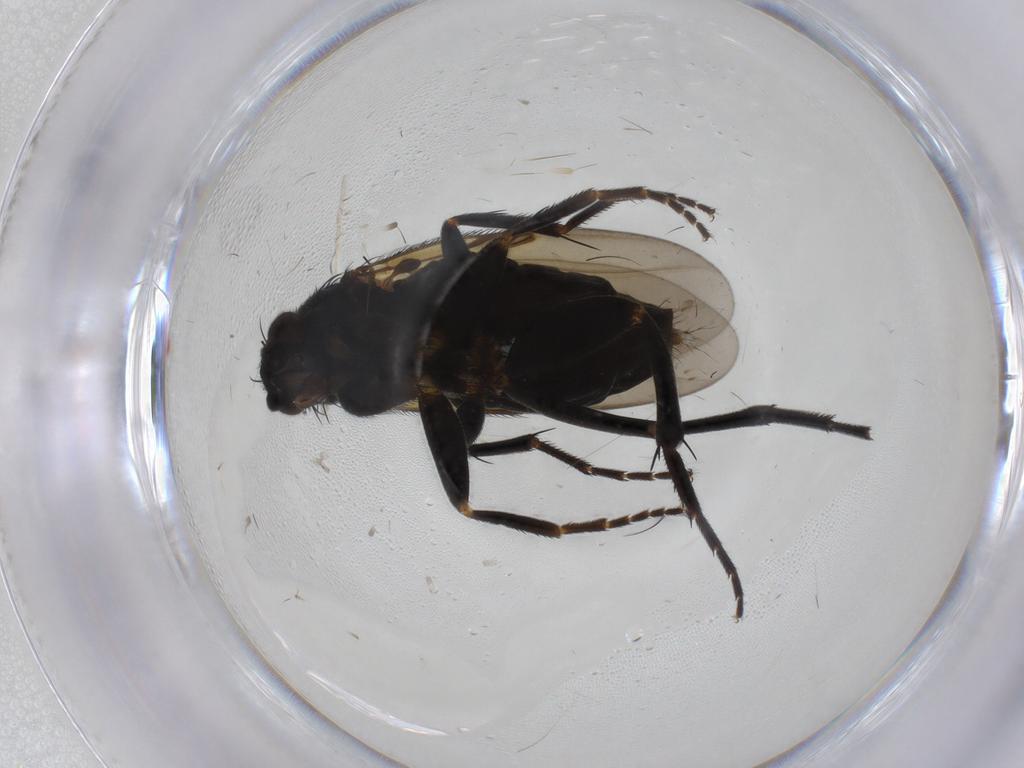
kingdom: Animalia
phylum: Arthropoda
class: Insecta
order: Diptera
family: Phoridae
